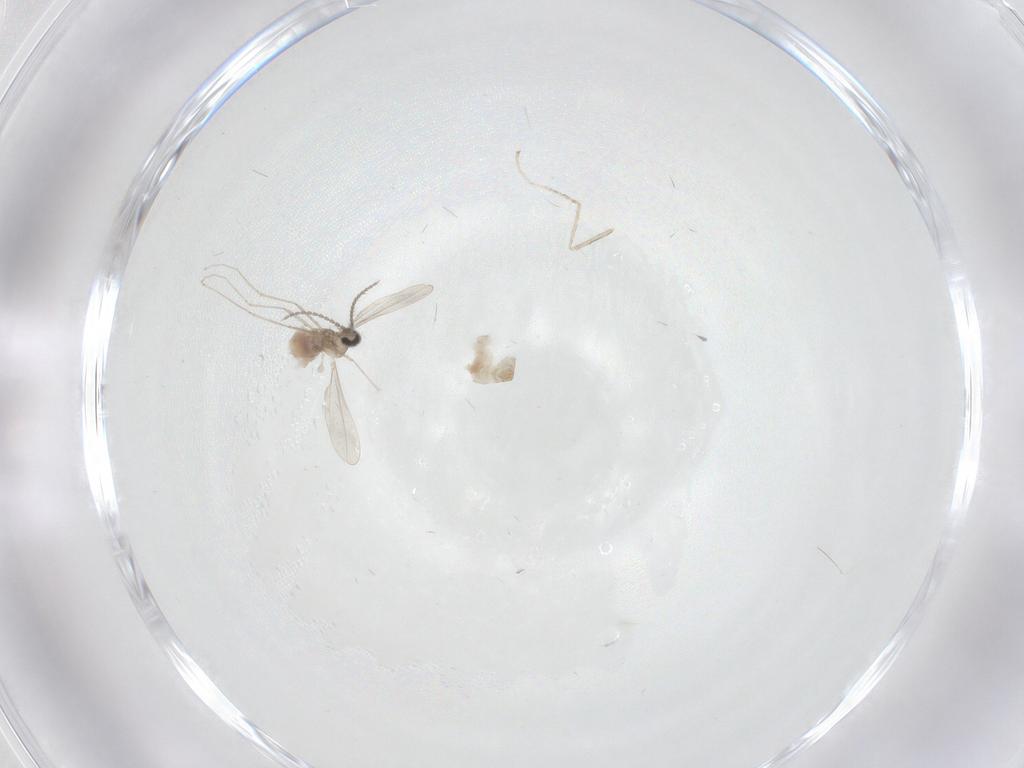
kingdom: Animalia
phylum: Arthropoda
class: Insecta
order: Diptera
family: Cecidomyiidae
